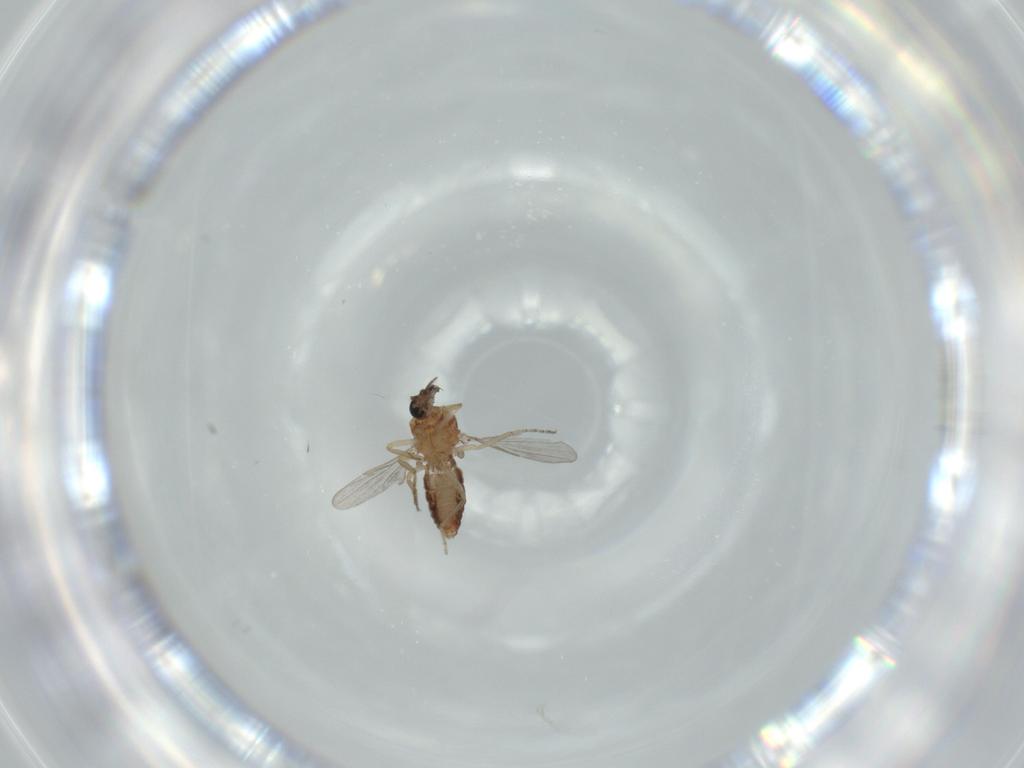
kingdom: Animalia
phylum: Arthropoda
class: Insecta
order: Diptera
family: Ceratopogonidae
